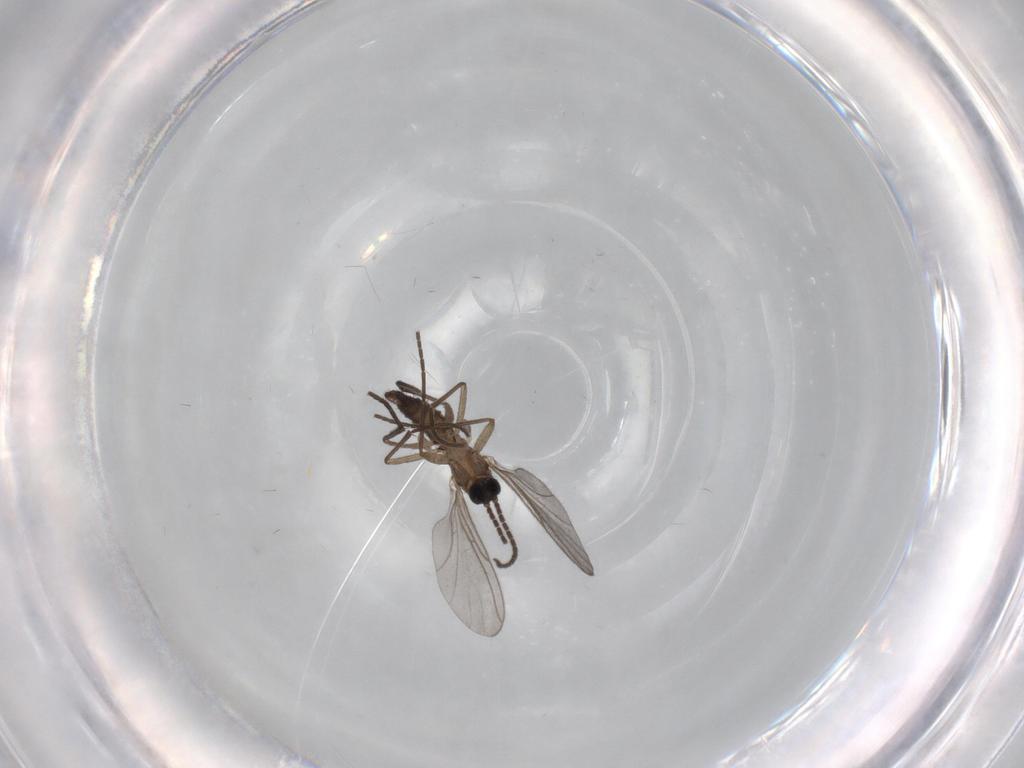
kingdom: Animalia
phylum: Arthropoda
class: Insecta
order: Diptera
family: Sciaridae
